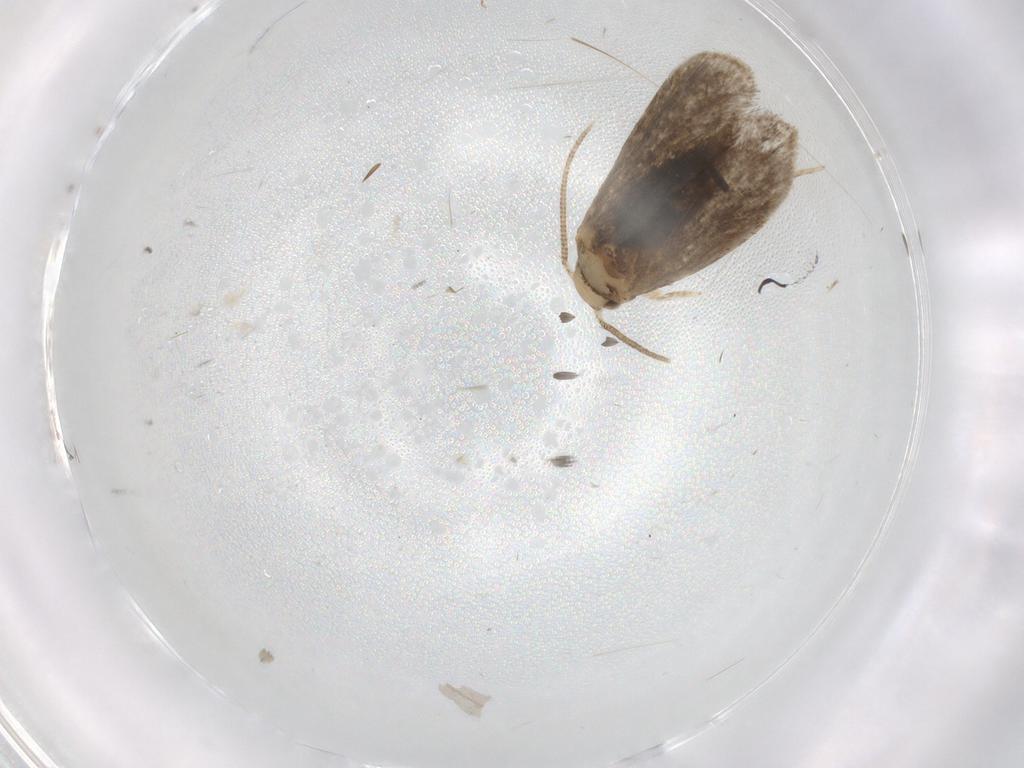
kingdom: Animalia
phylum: Arthropoda
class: Insecta
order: Lepidoptera
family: Dryadaulidae
